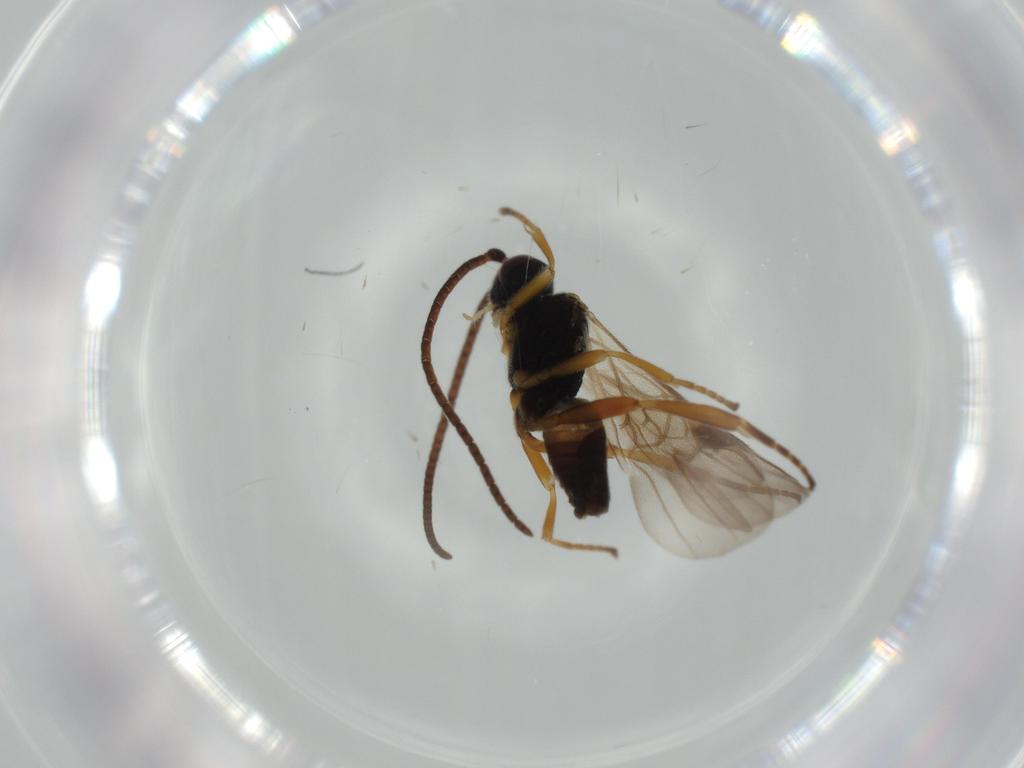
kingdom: Animalia
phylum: Arthropoda
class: Insecta
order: Hymenoptera
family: Braconidae
